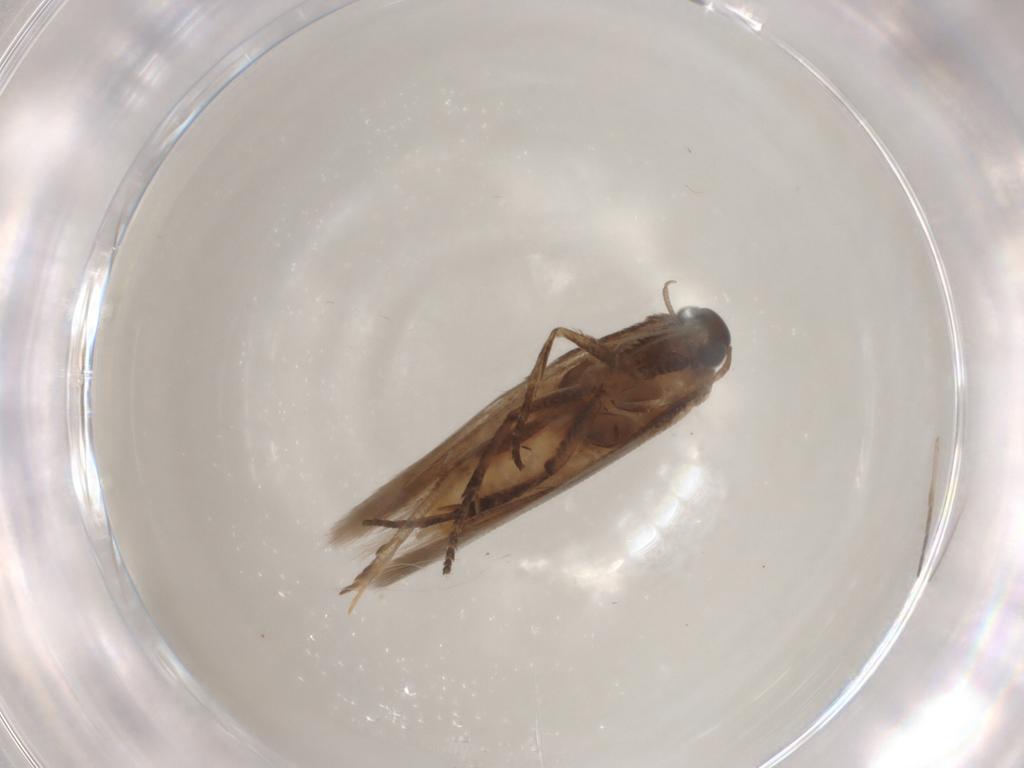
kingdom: Animalia
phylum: Arthropoda
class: Insecta
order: Lepidoptera
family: Gelechiidae
